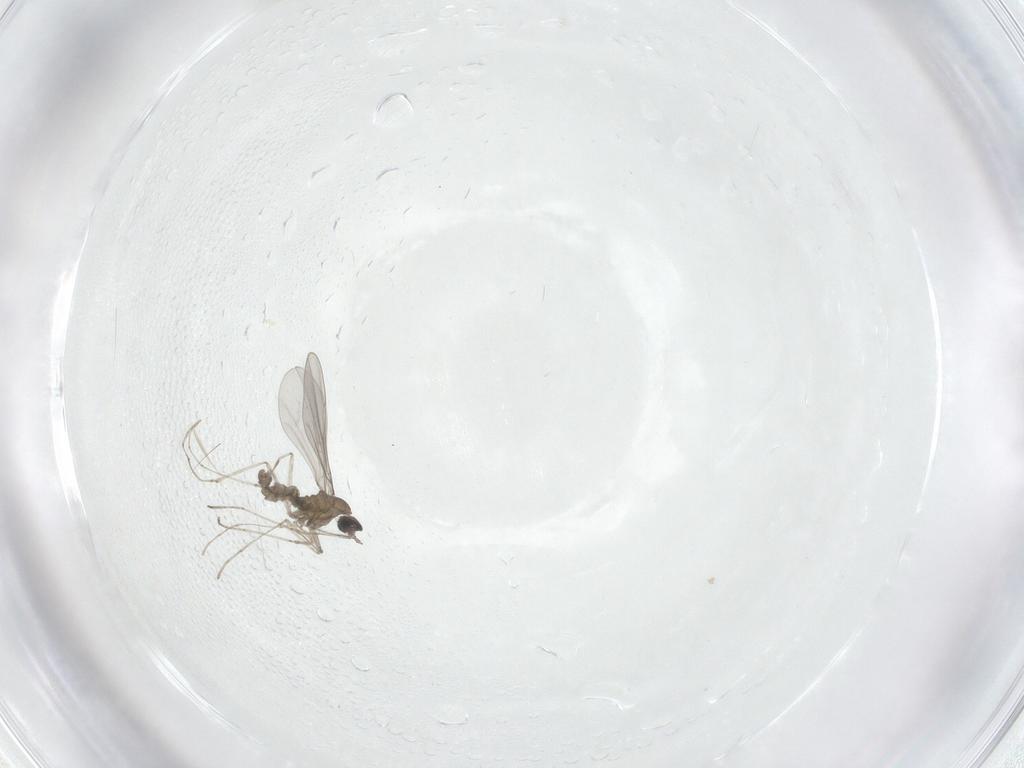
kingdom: Animalia
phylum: Arthropoda
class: Insecta
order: Diptera
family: Limoniidae
